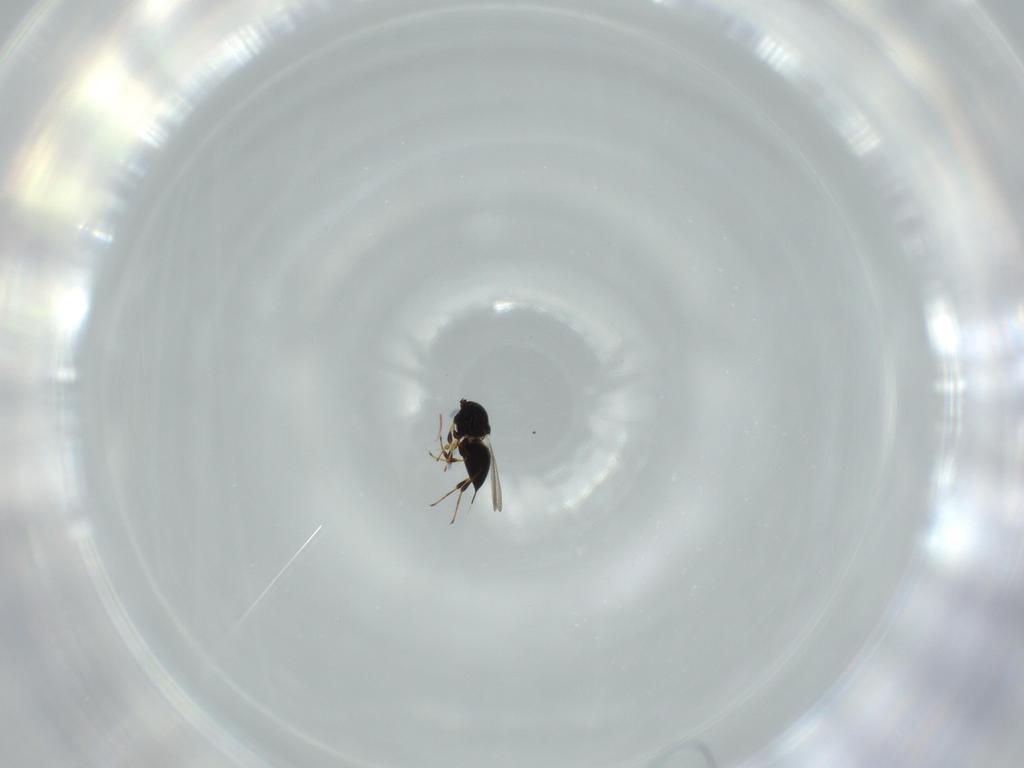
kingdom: Animalia
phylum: Arthropoda
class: Insecta
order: Hymenoptera
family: Platygastridae
